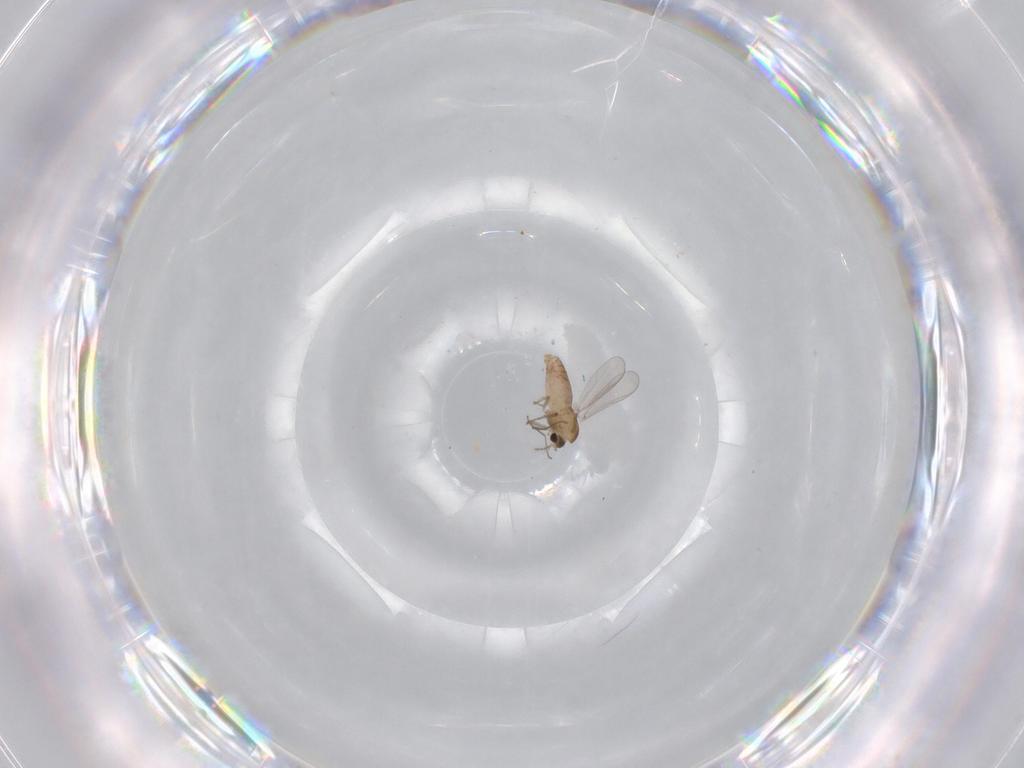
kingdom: Animalia
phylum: Arthropoda
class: Insecta
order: Diptera
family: Chironomidae
